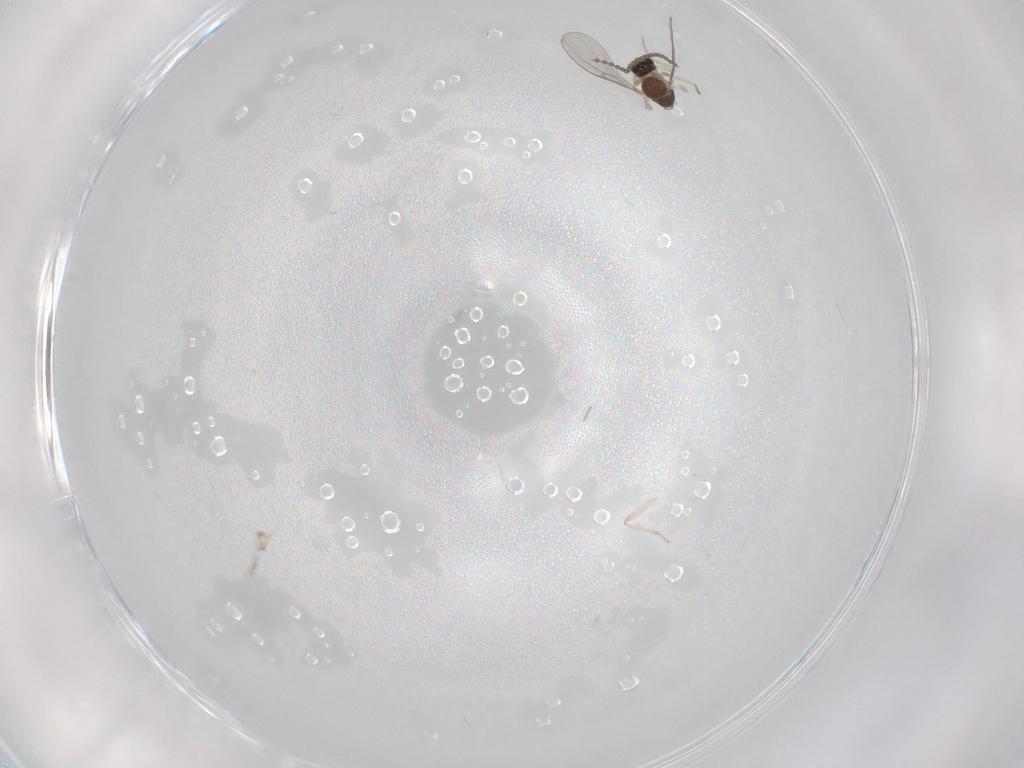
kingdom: Animalia
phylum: Arthropoda
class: Insecta
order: Diptera
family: Cecidomyiidae
